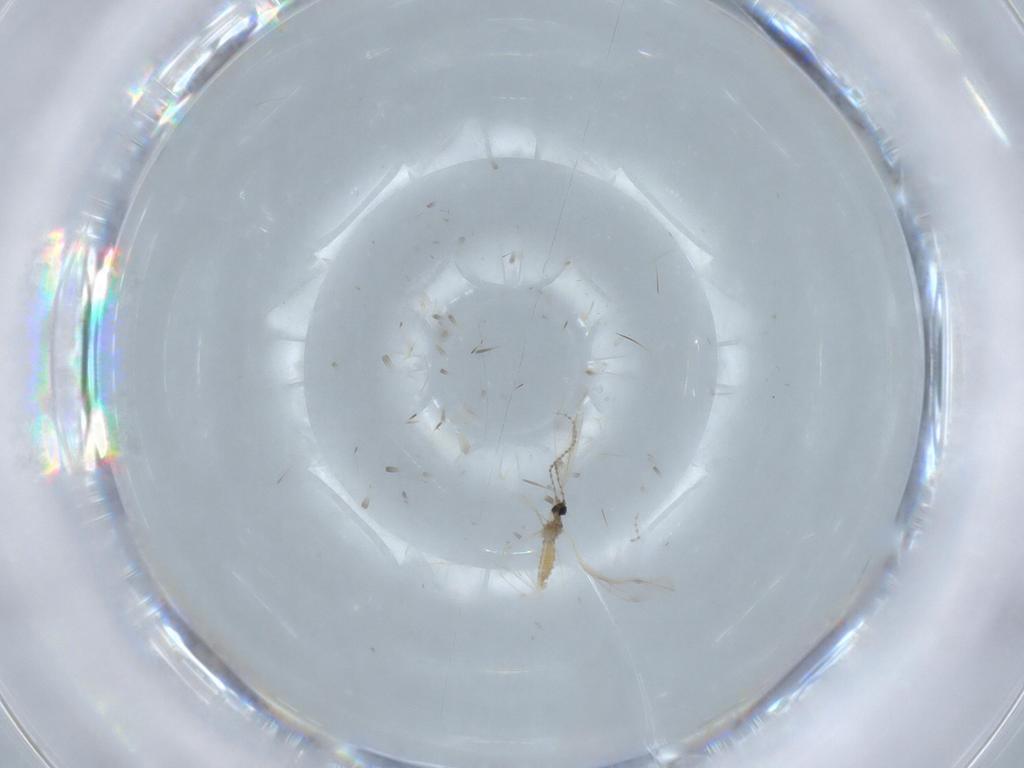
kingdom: Animalia
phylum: Arthropoda
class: Insecta
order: Diptera
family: Cecidomyiidae
